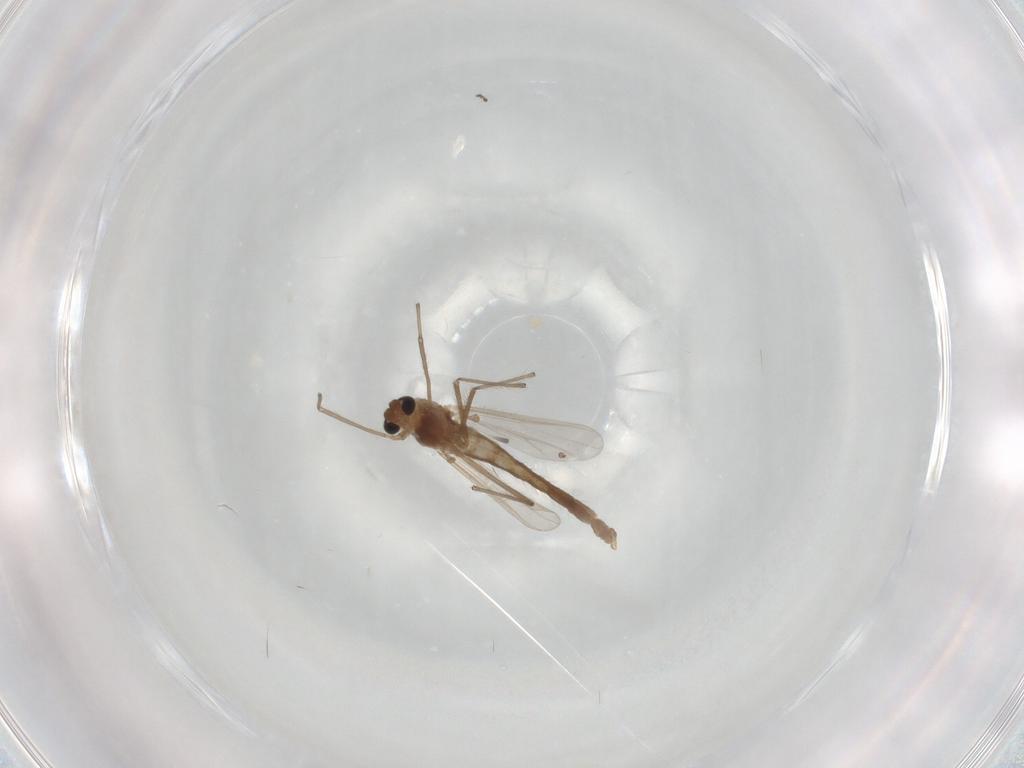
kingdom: Animalia
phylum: Arthropoda
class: Insecta
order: Diptera
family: Chironomidae
